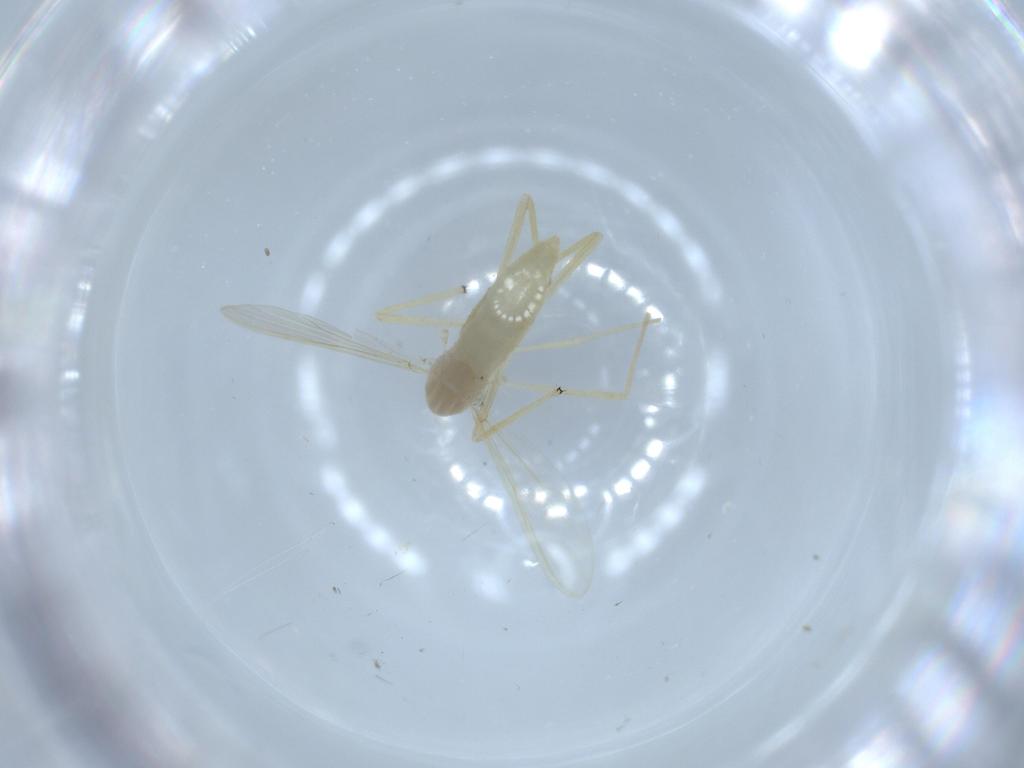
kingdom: Animalia
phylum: Arthropoda
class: Insecta
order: Diptera
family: Chironomidae
